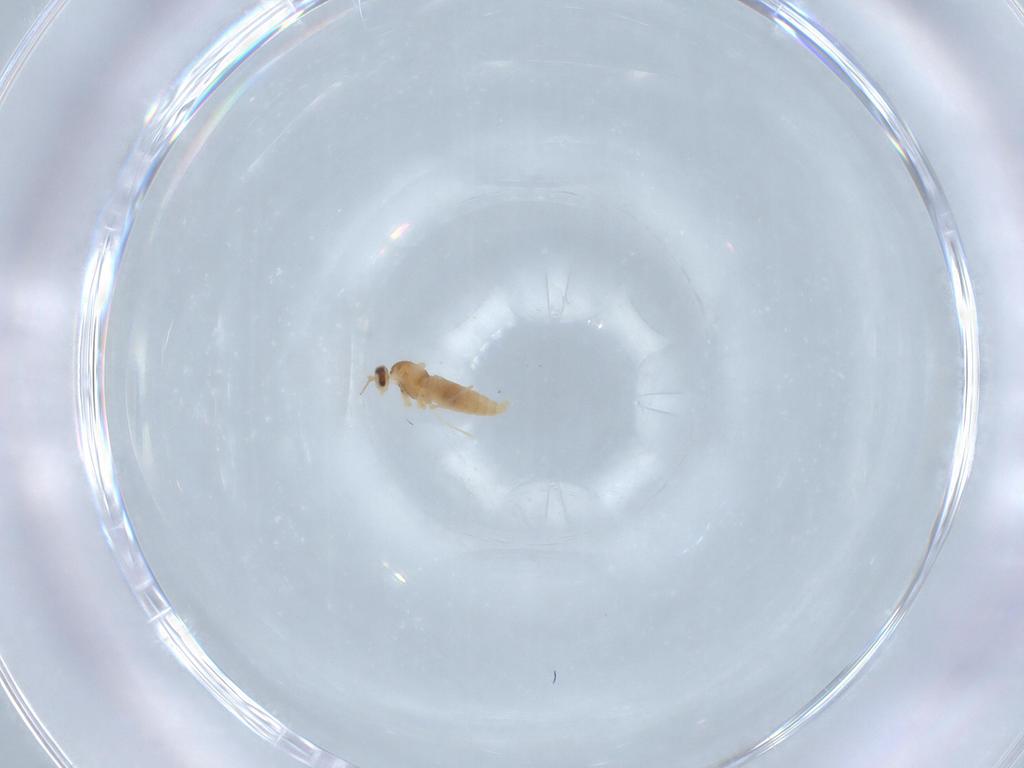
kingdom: Animalia
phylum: Arthropoda
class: Insecta
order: Diptera
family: Cecidomyiidae
